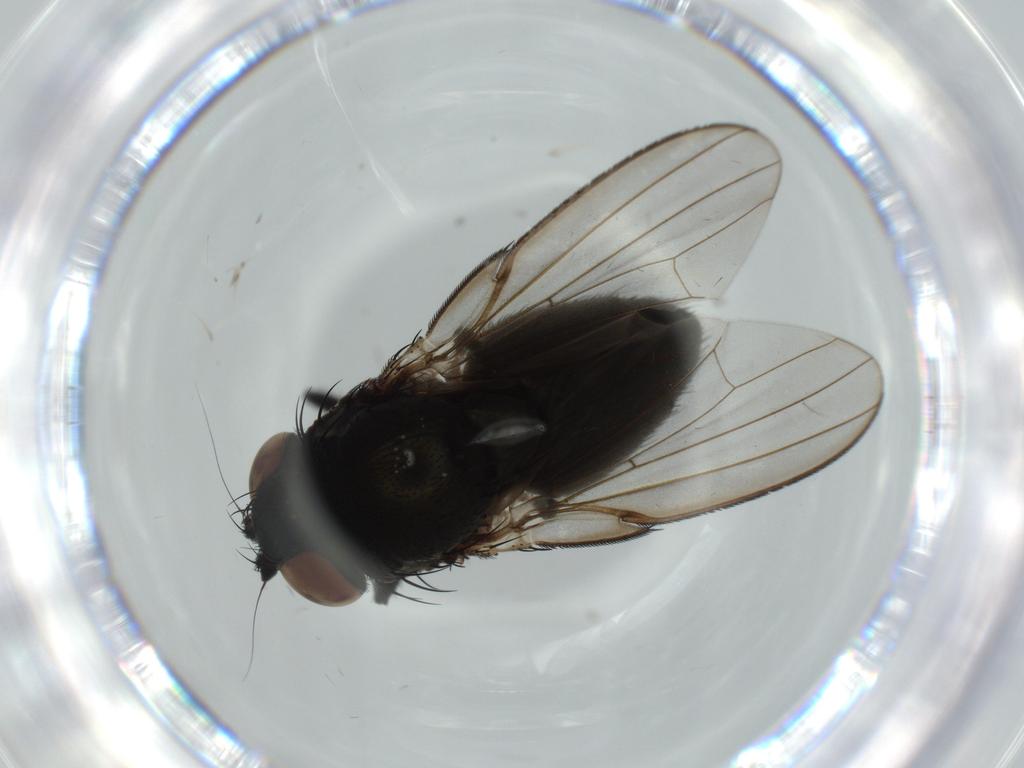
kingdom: Animalia
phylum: Arthropoda
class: Insecta
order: Diptera
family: Milichiidae
